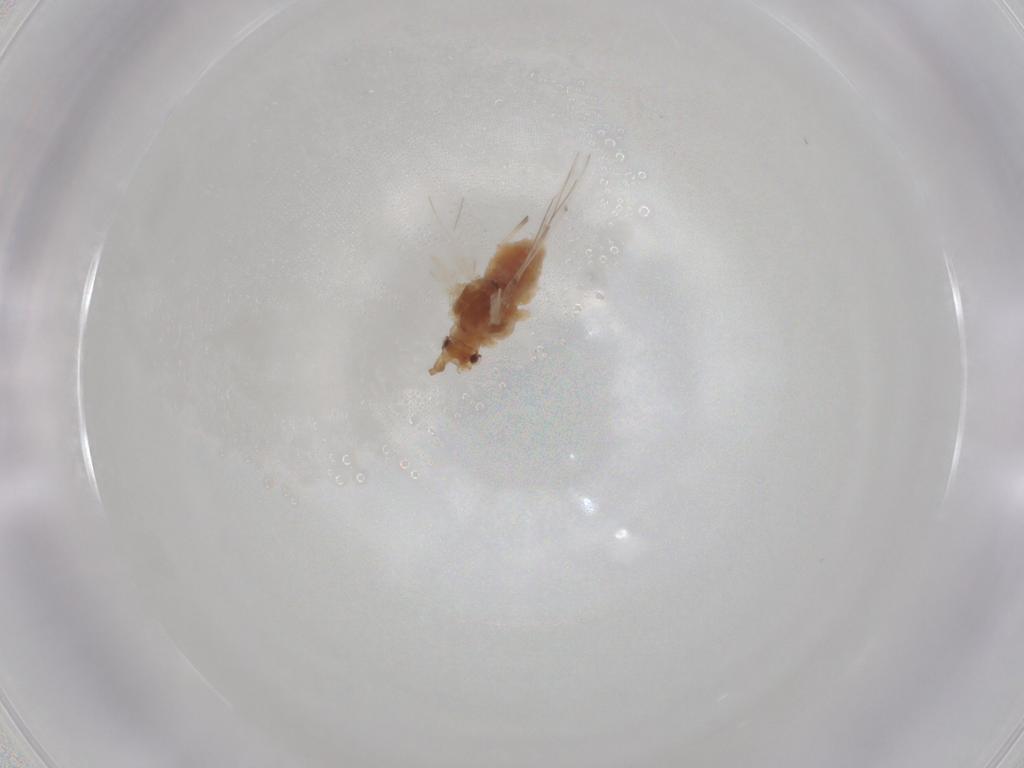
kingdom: Animalia
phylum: Arthropoda
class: Insecta
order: Hemiptera
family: Aphididae
